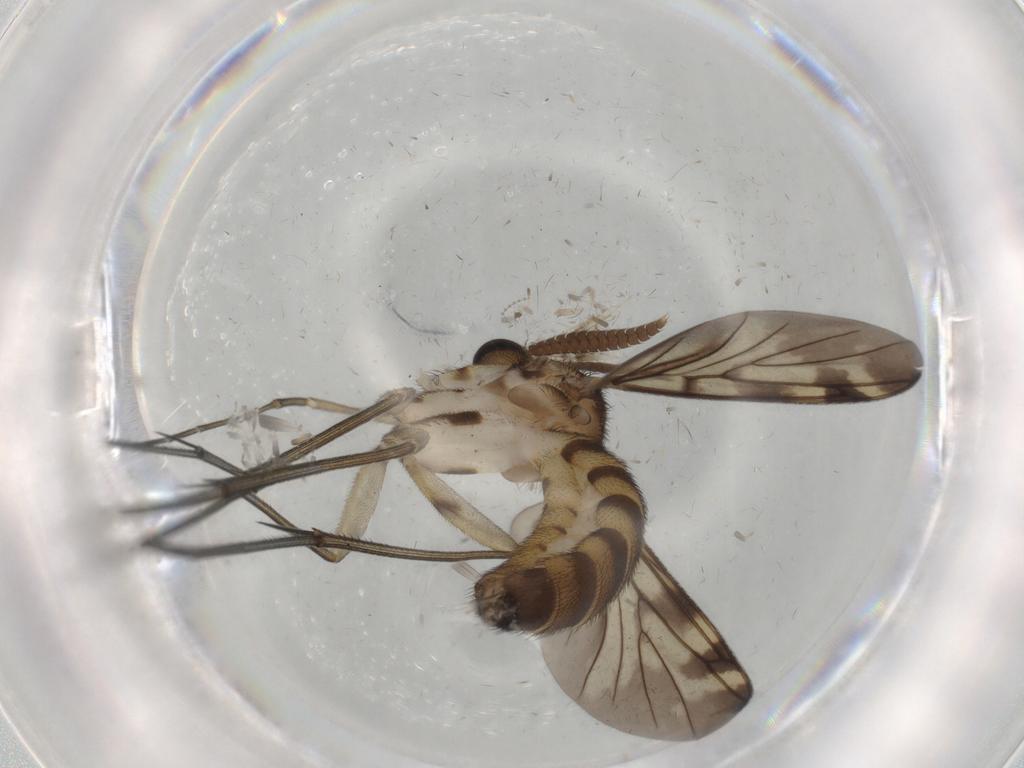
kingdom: Animalia
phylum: Arthropoda
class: Insecta
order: Diptera
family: Sphaeroceridae
